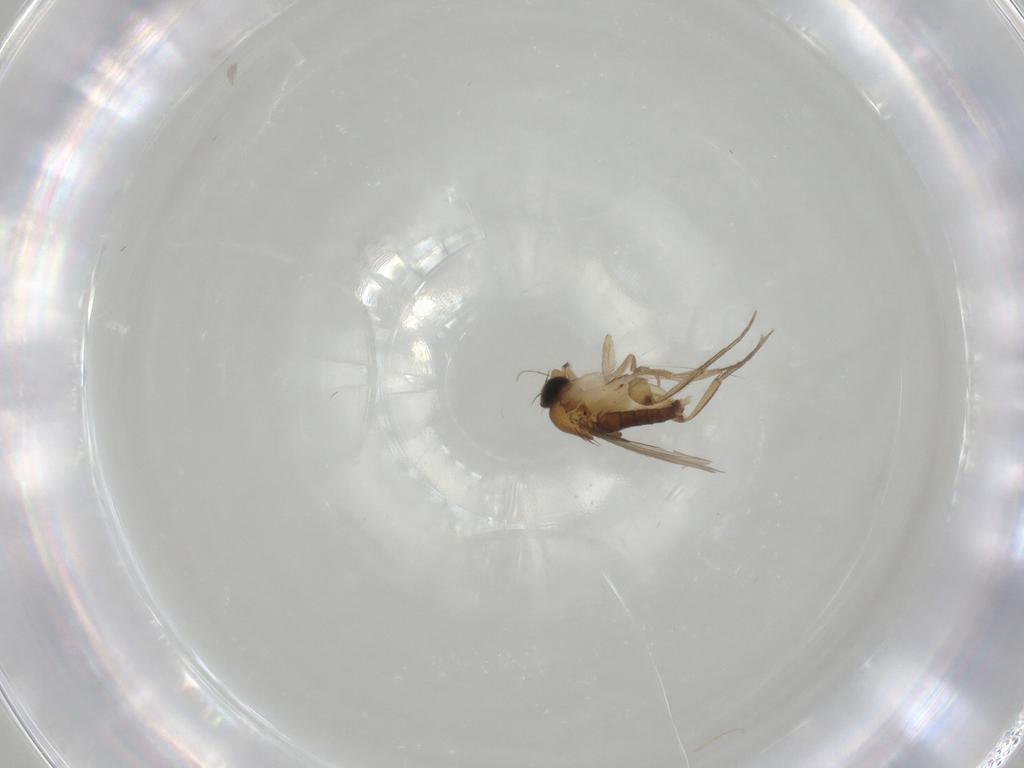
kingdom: Animalia
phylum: Arthropoda
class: Insecta
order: Diptera
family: Phoridae
